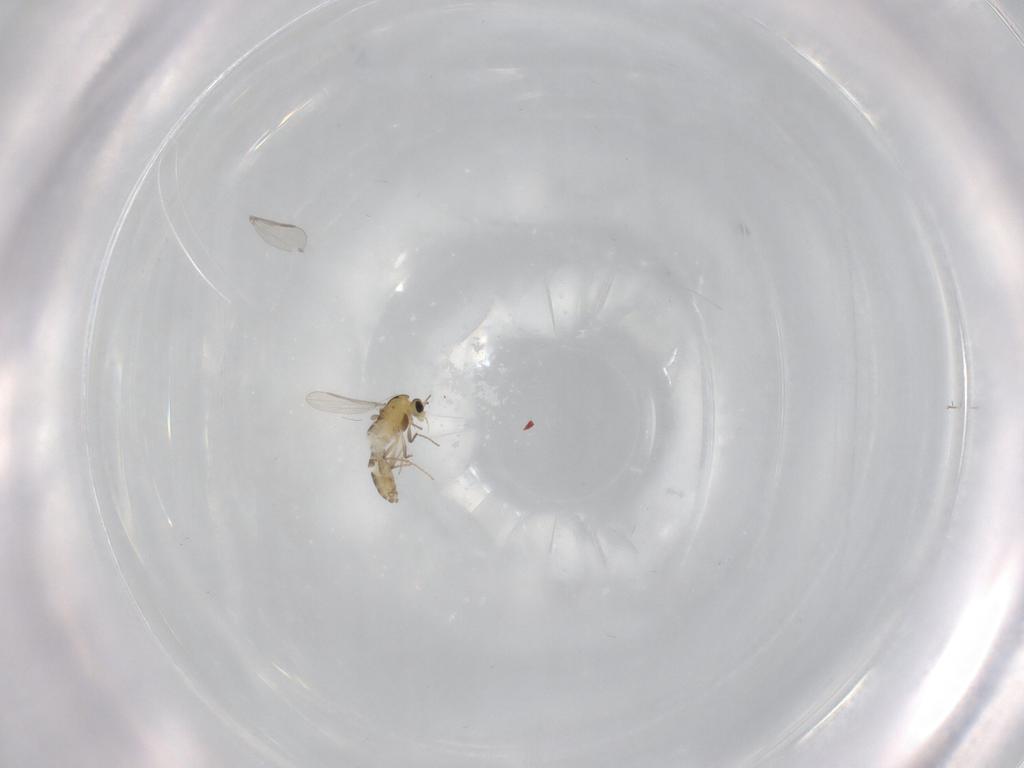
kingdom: Animalia
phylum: Arthropoda
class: Insecta
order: Diptera
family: Chironomidae
